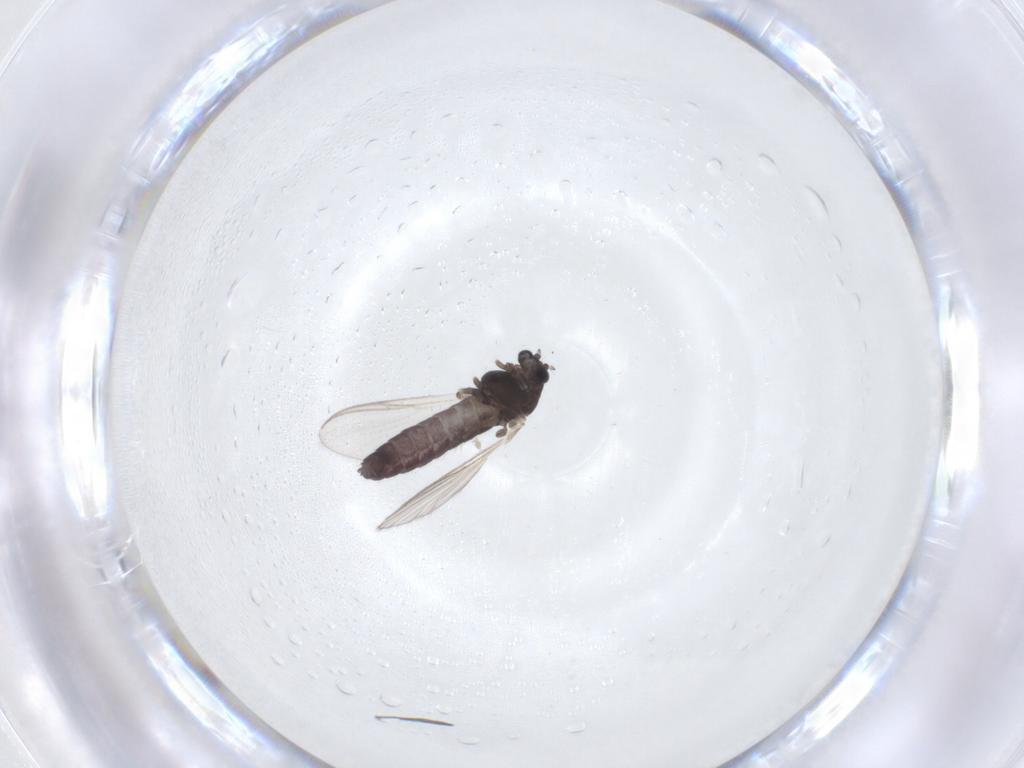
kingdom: Animalia
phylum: Arthropoda
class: Insecta
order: Diptera
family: Chironomidae
